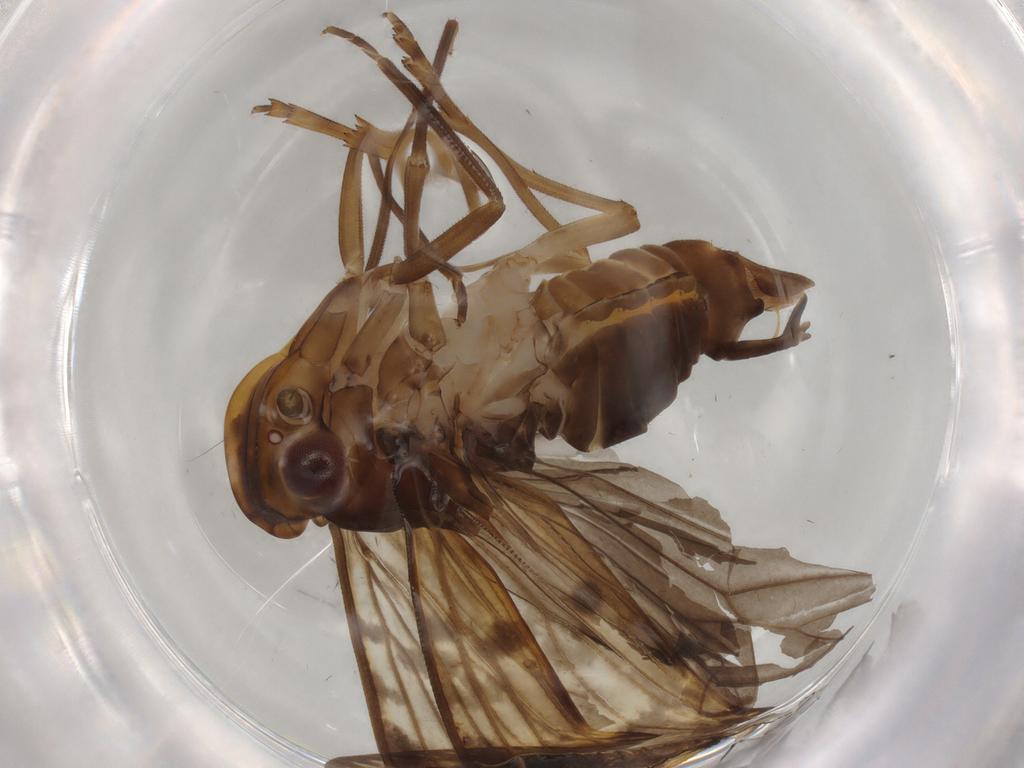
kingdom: Animalia
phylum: Arthropoda
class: Insecta
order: Hemiptera
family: Cixiidae
